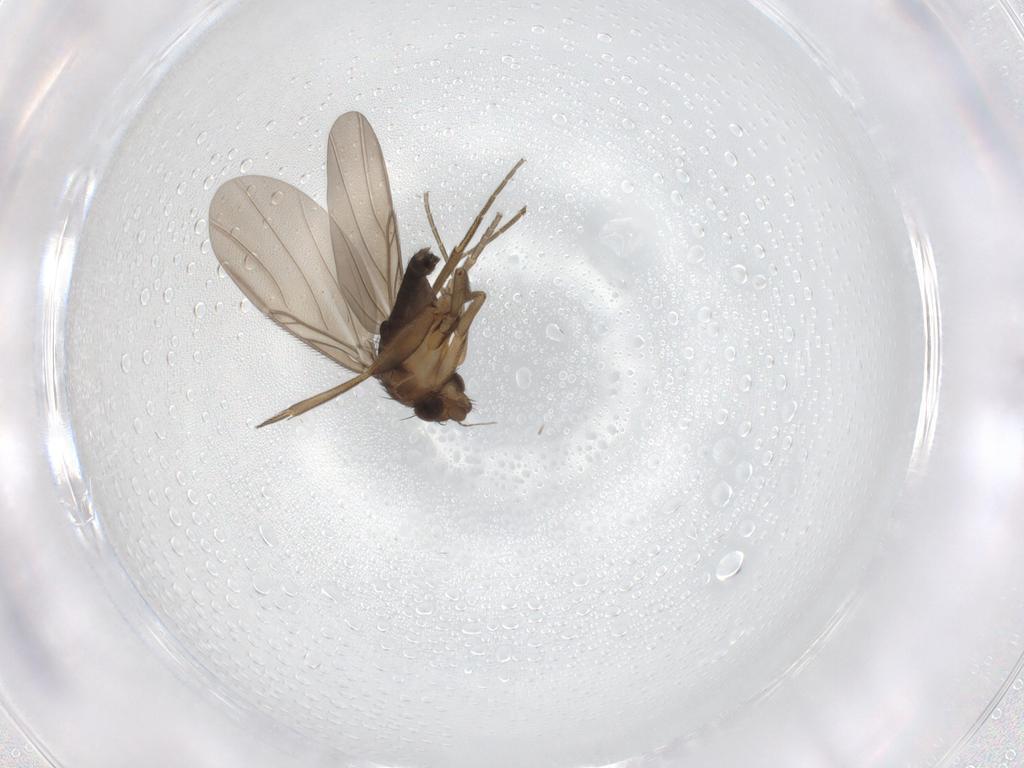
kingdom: Animalia
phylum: Arthropoda
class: Insecta
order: Diptera
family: Phoridae
